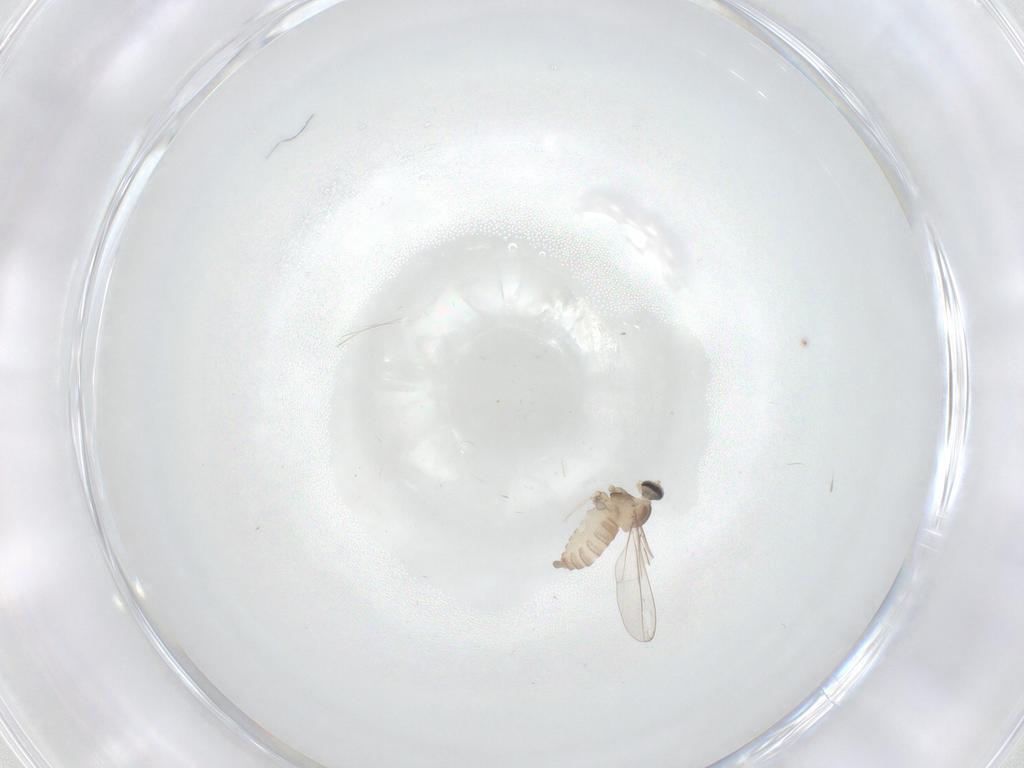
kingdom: Animalia
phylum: Arthropoda
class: Insecta
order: Diptera
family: Cecidomyiidae
